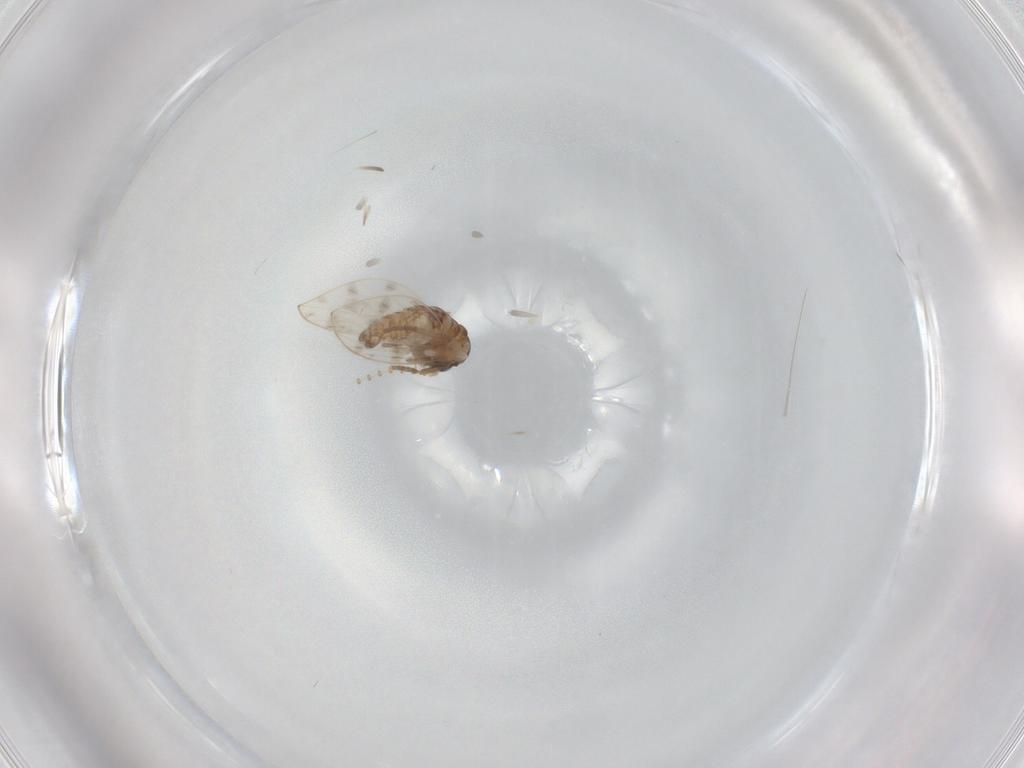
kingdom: Animalia
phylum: Arthropoda
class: Insecta
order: Diptera
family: Psychodidae
